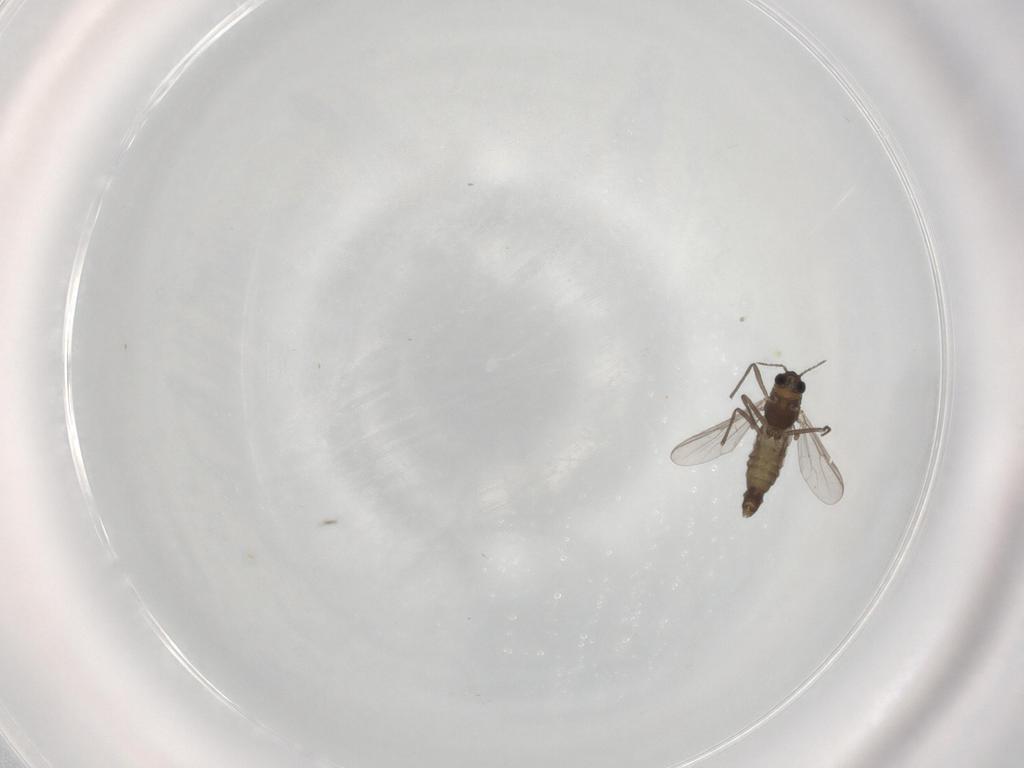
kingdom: Animalia
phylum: Arthropoda
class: Insecta
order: Diptera
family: Chironomidae
